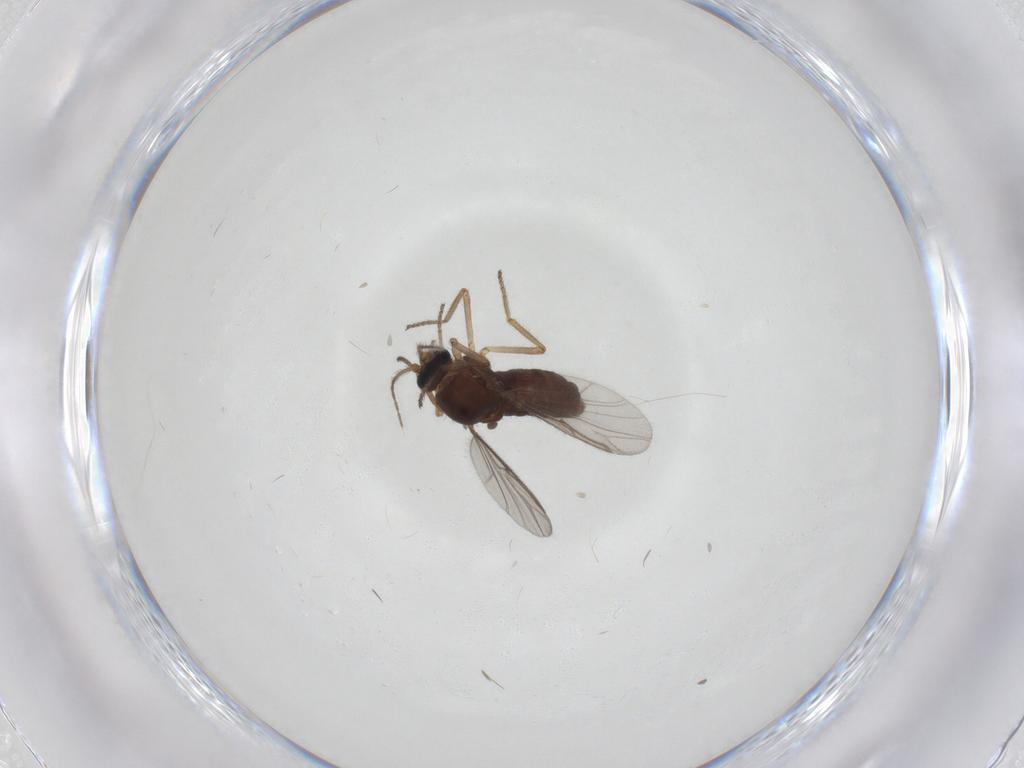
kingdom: Animalia
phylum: Arthropoda
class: Insecta
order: Diptera
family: Ceratopogonidae
